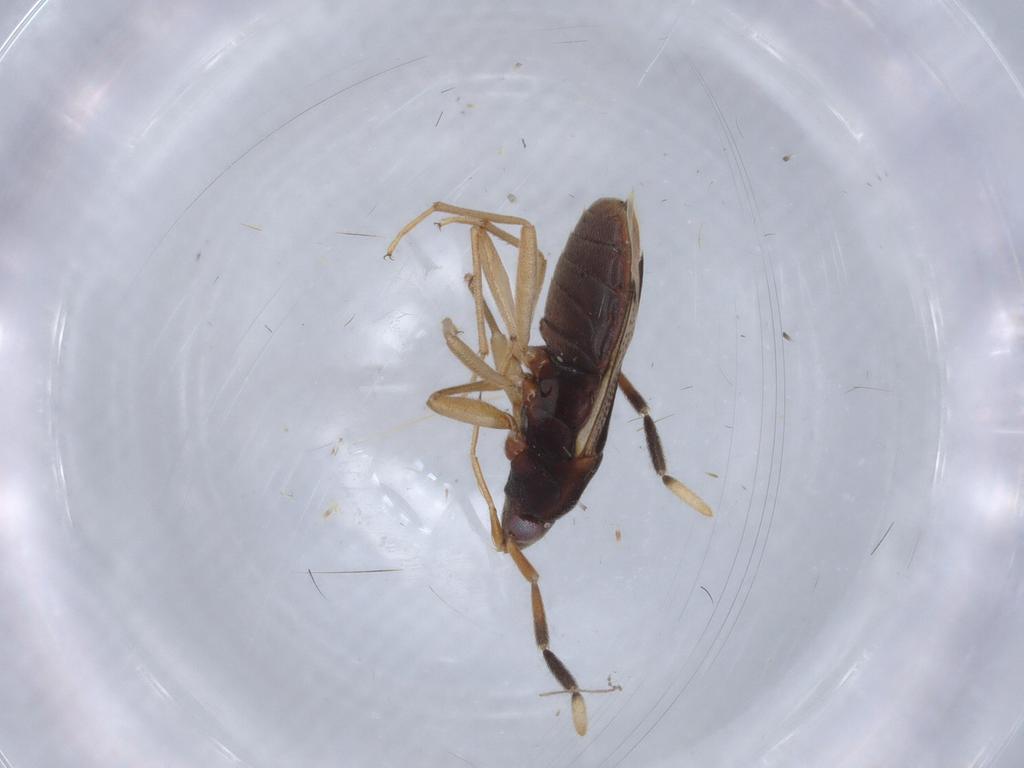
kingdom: Animalia
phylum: Arthropoda
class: Insecta
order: Hemiptera
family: Rhyparochromidae
